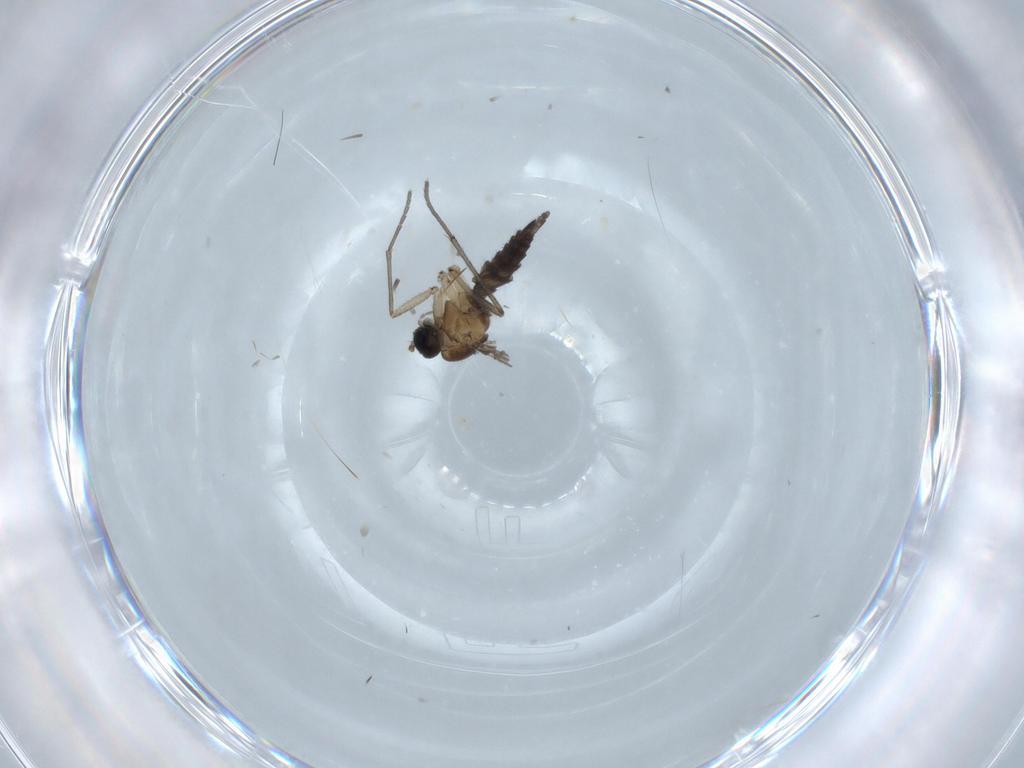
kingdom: Animalia
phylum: Arthropoda
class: Insecta
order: Diptera
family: Sciaridae
